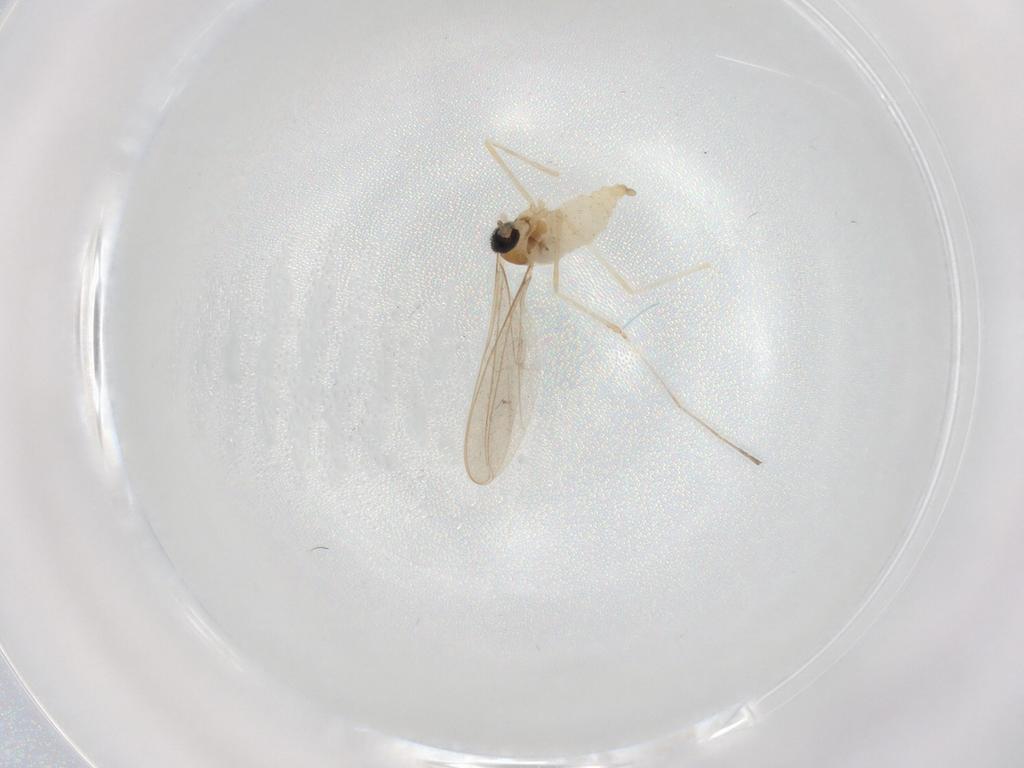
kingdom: Animalia
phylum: Arthropoda
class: Insecta
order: Diptera
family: Cecidomyiidae
